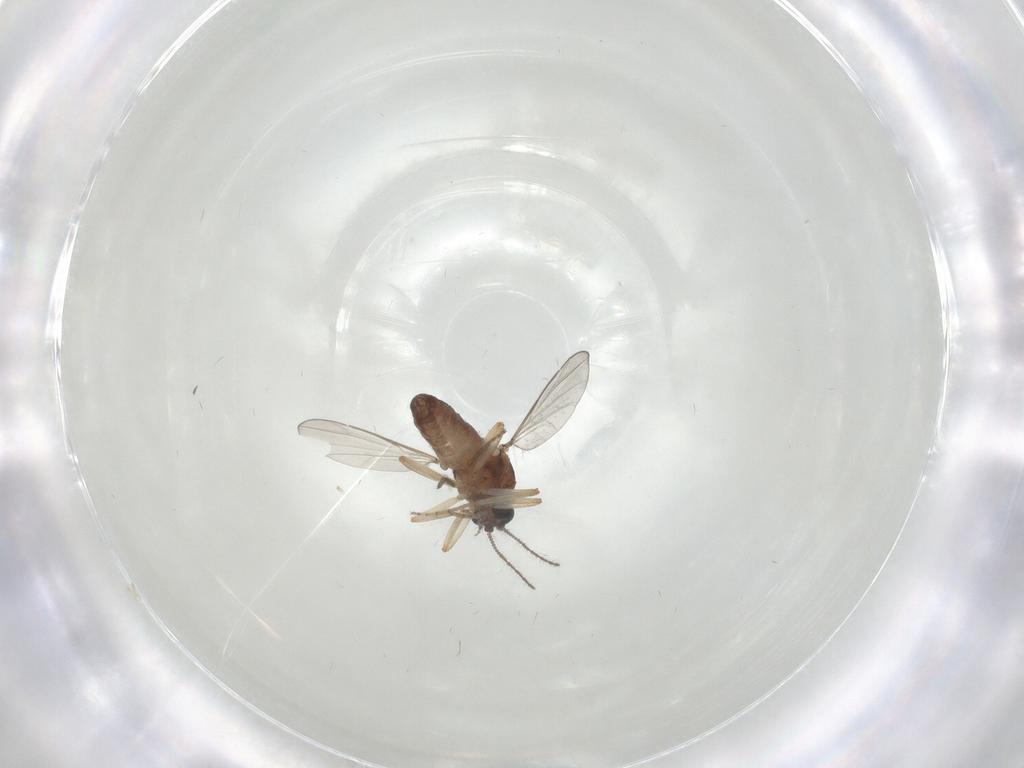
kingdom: Animalia
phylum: Arthropoda
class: Insecta
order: Diptera
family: Ceratopogonidae
